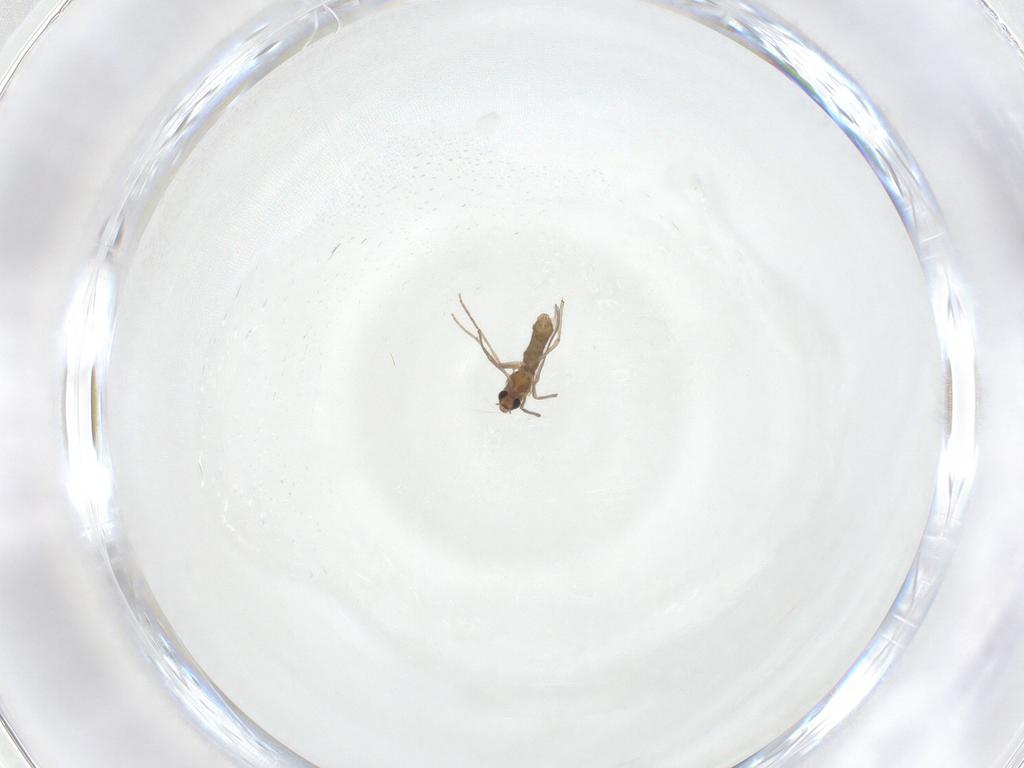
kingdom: Animalia
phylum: Arthropoda
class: Insecta
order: Diptera
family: Chironomidae
